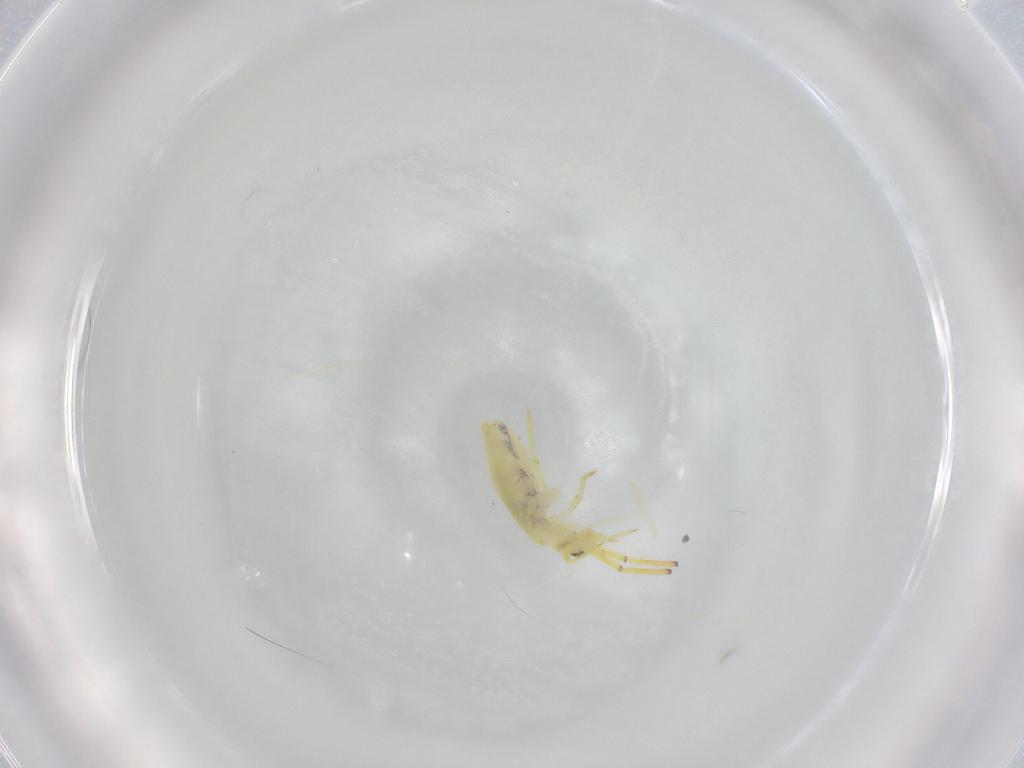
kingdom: Animalia
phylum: Arthropoda
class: Collembola
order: Entomobryomorpha
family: Entomobryidae
